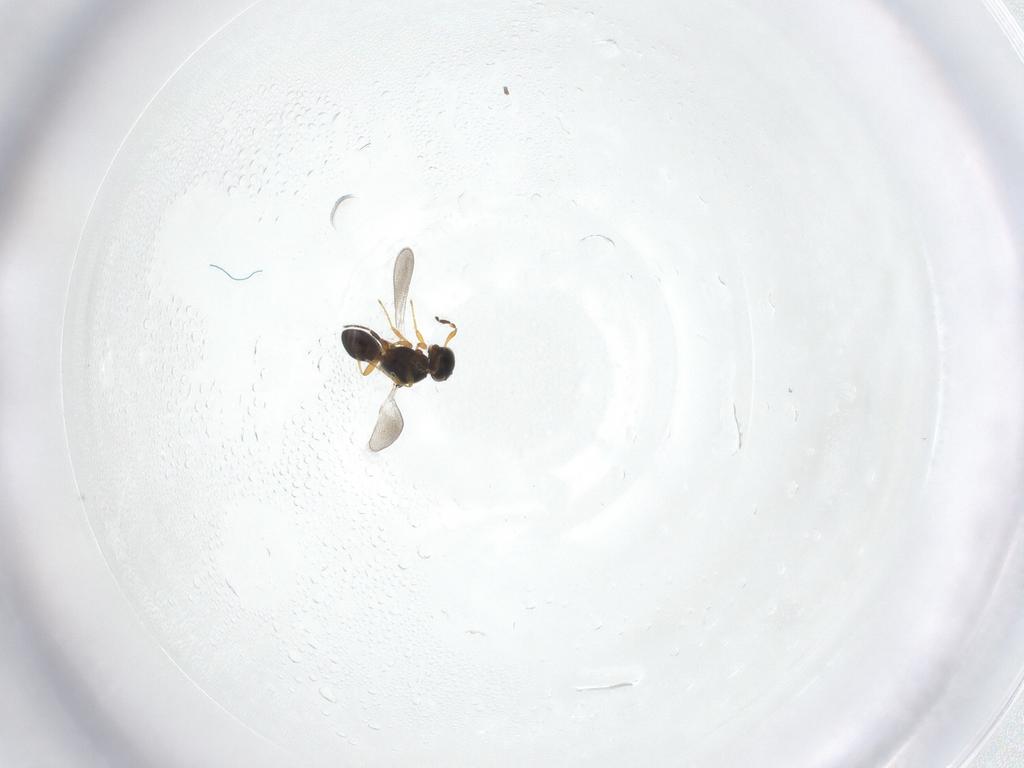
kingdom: Animalia
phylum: Arthropoda
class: Insecta
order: Hymenoptera
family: Platygastridae
